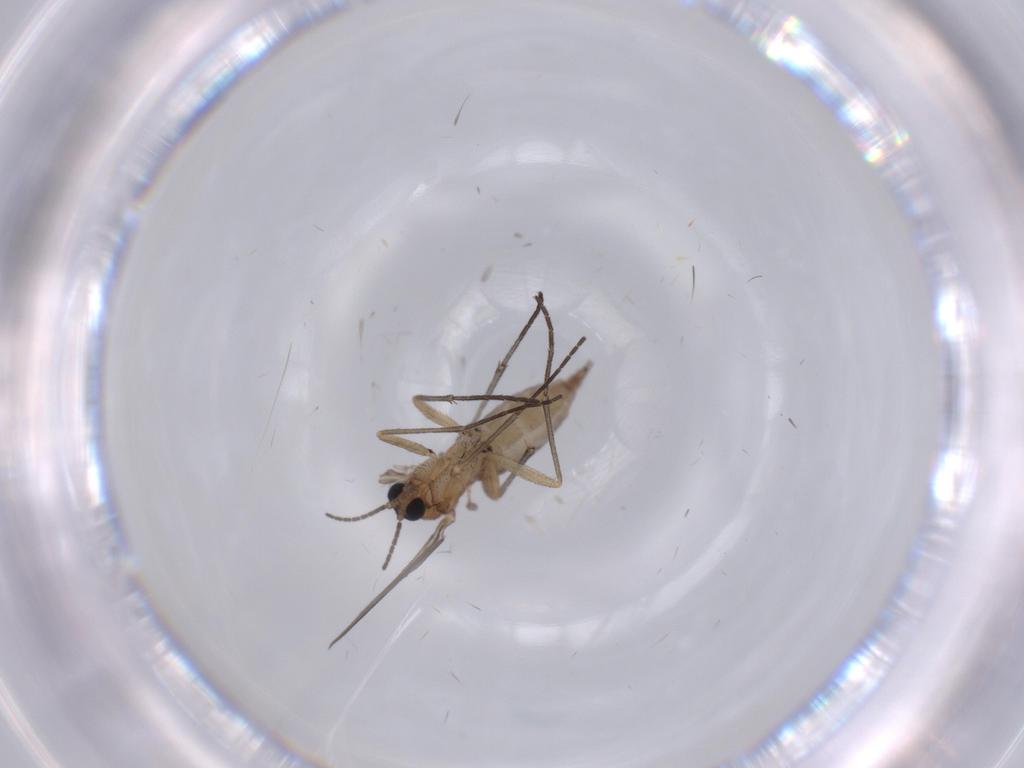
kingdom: Animalia
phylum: Arthropoda
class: Insecta
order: Diptera
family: Sciaridae
